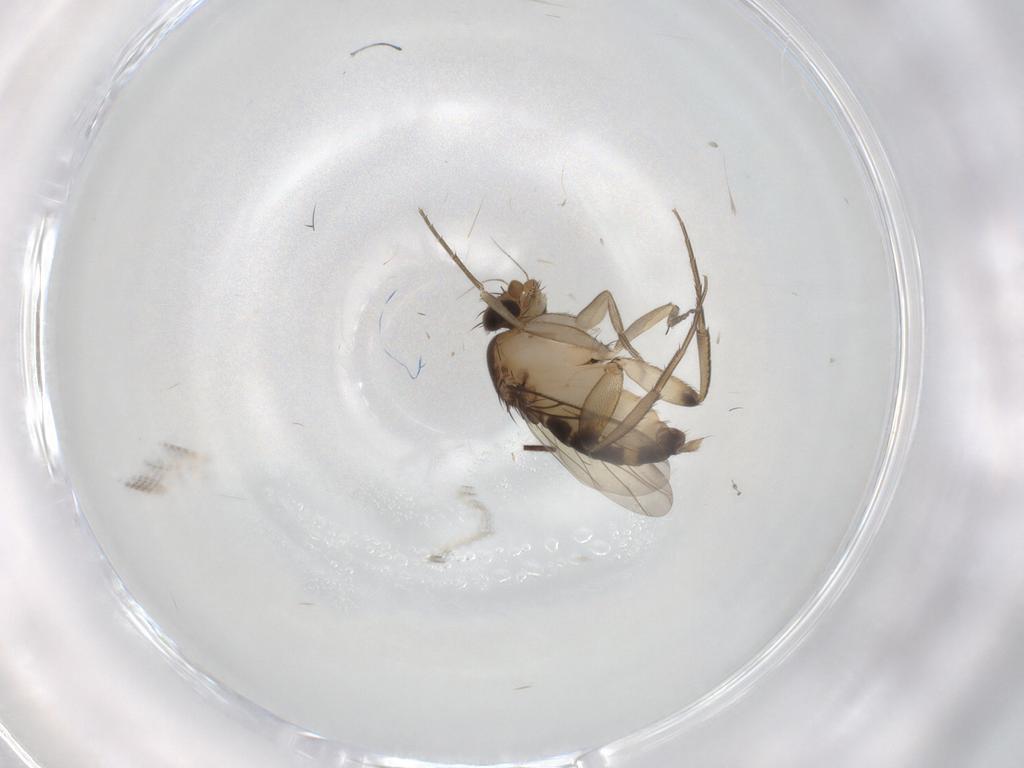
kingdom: Animalia
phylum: Arthropoda
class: Insecta
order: Diptera
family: Psychodidae
